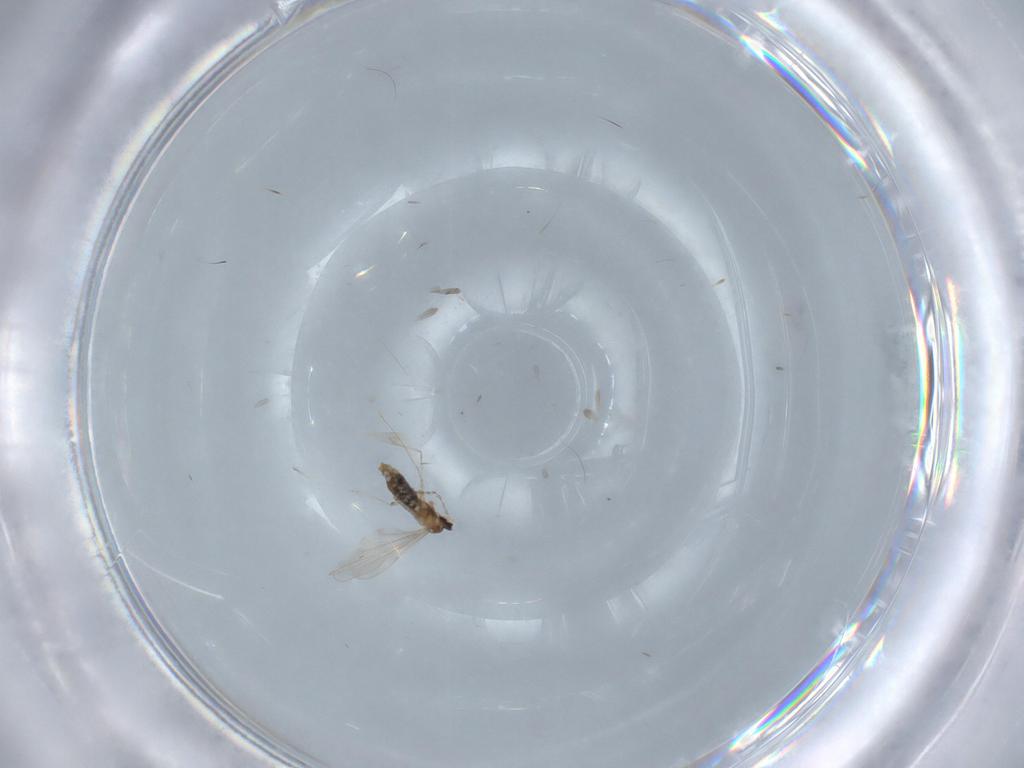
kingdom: Animalia
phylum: Arthropoda
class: Insecta
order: Diptera
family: Cecidomyiidae
